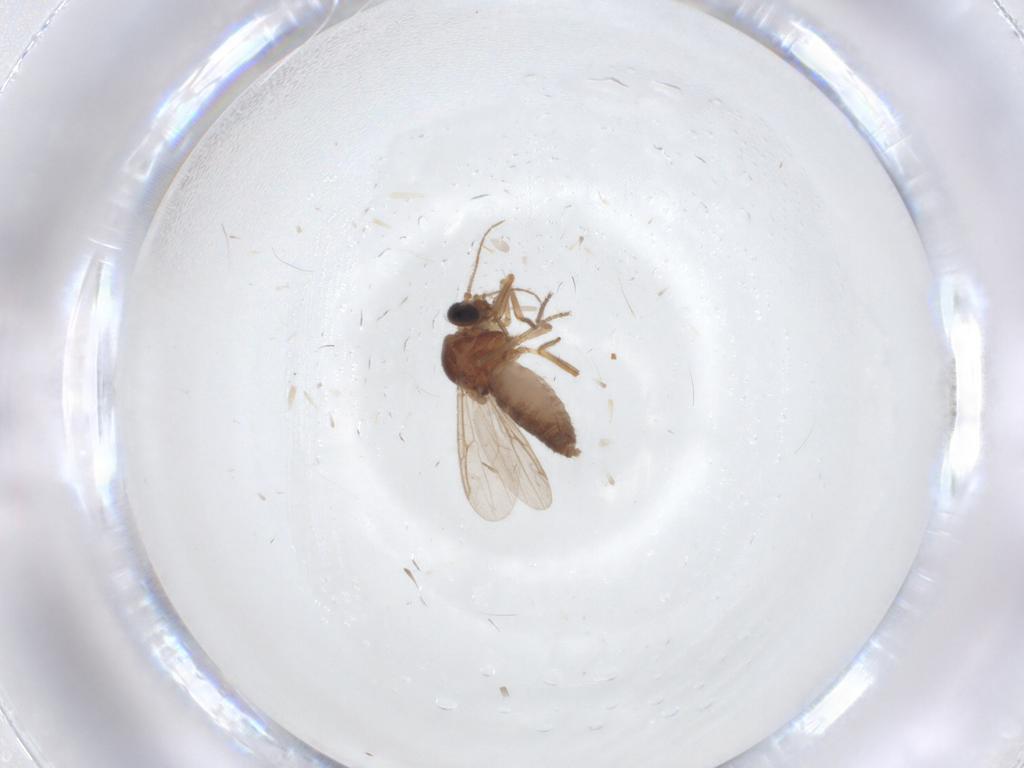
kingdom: Animalia
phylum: Arthropoda
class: Insecta
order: Diptera
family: Ceratopogonidae
